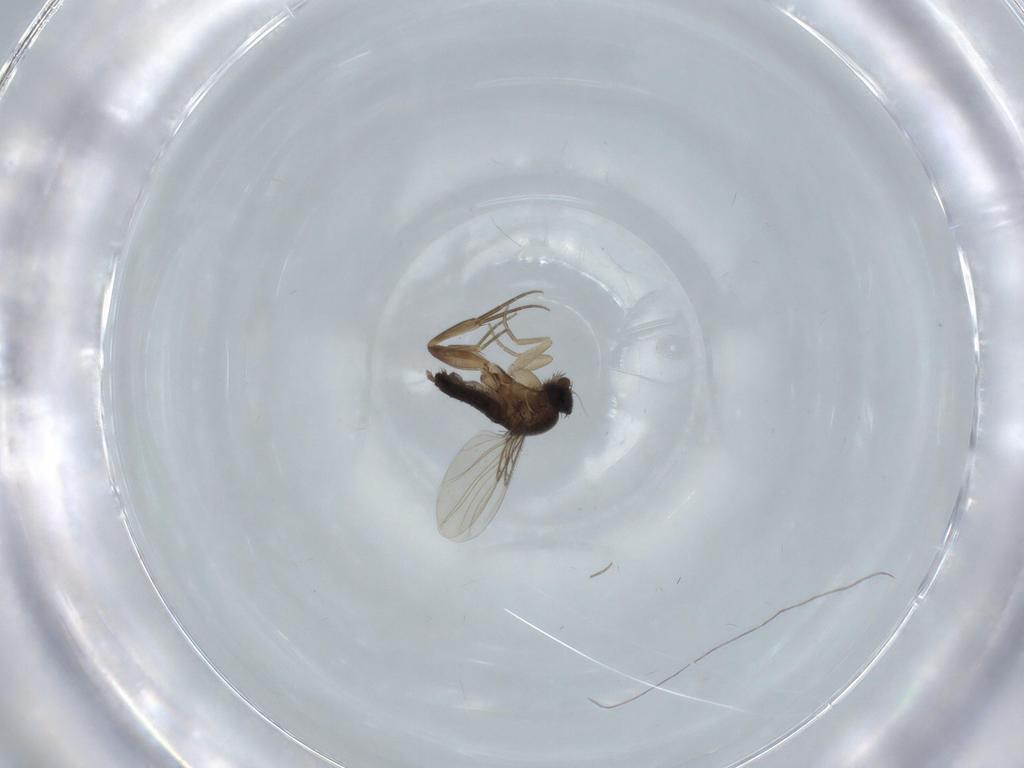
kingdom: Animalia
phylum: Arthropoda
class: Insecta
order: Diptera
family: Phoridae
